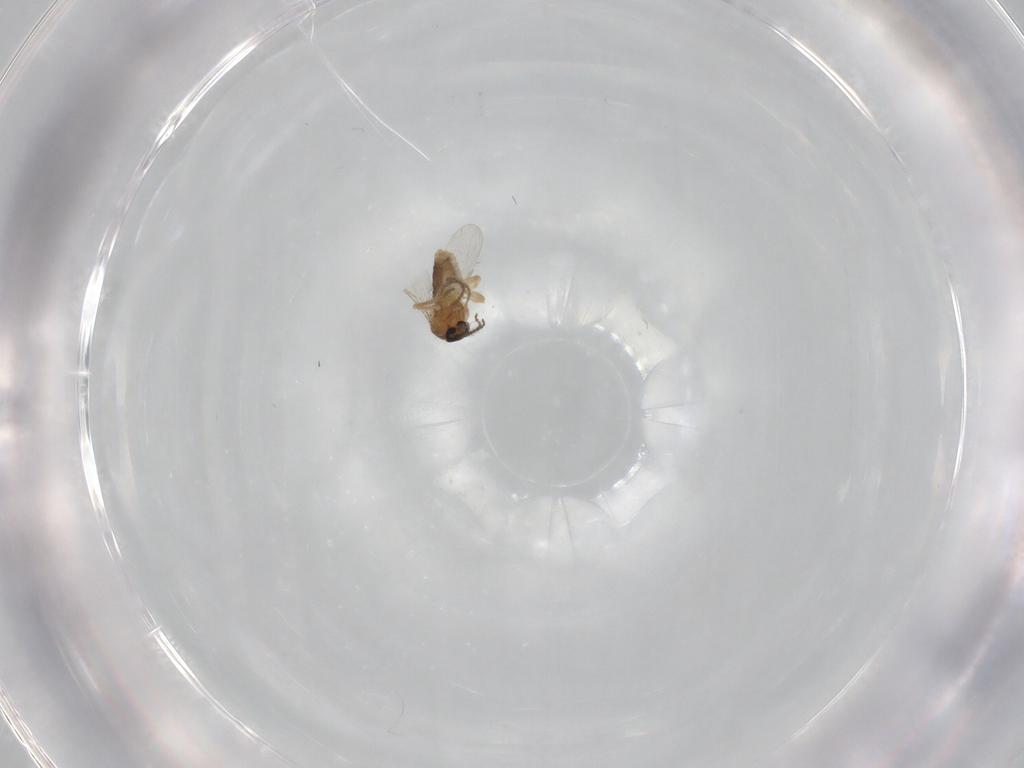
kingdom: Animalia
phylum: Arthropoda
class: Insecta
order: Diptera
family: Ceratopogonidae
